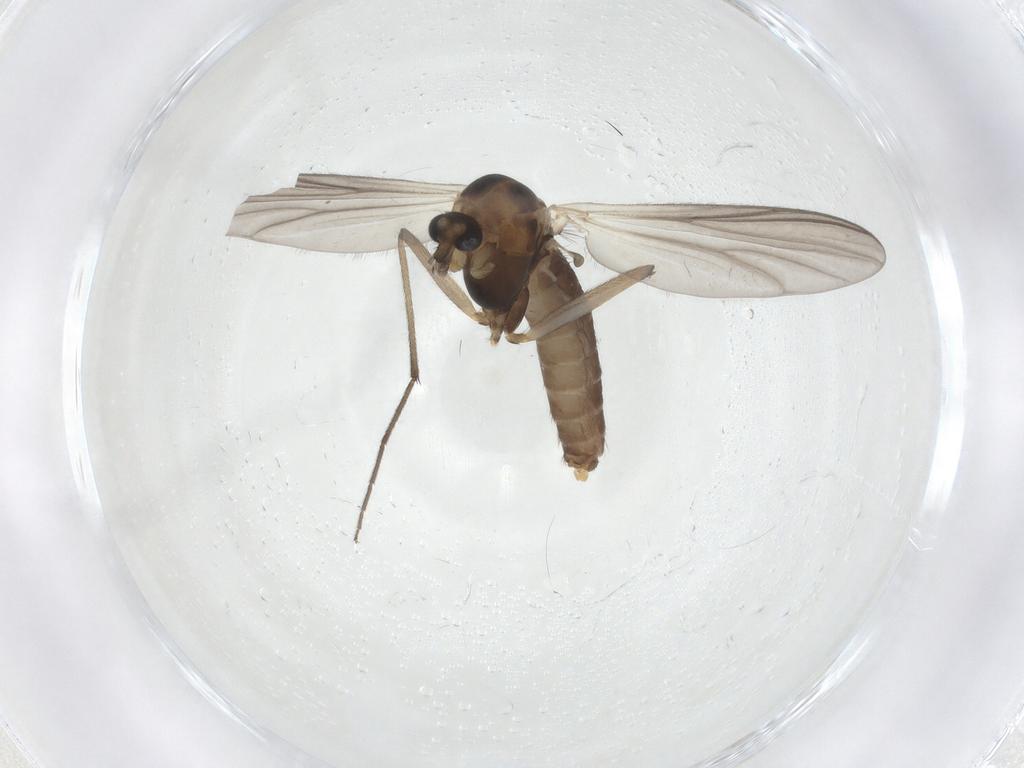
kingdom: Animalia
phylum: Arthropoda
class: Insecta
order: Diptera
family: Chironomidae
